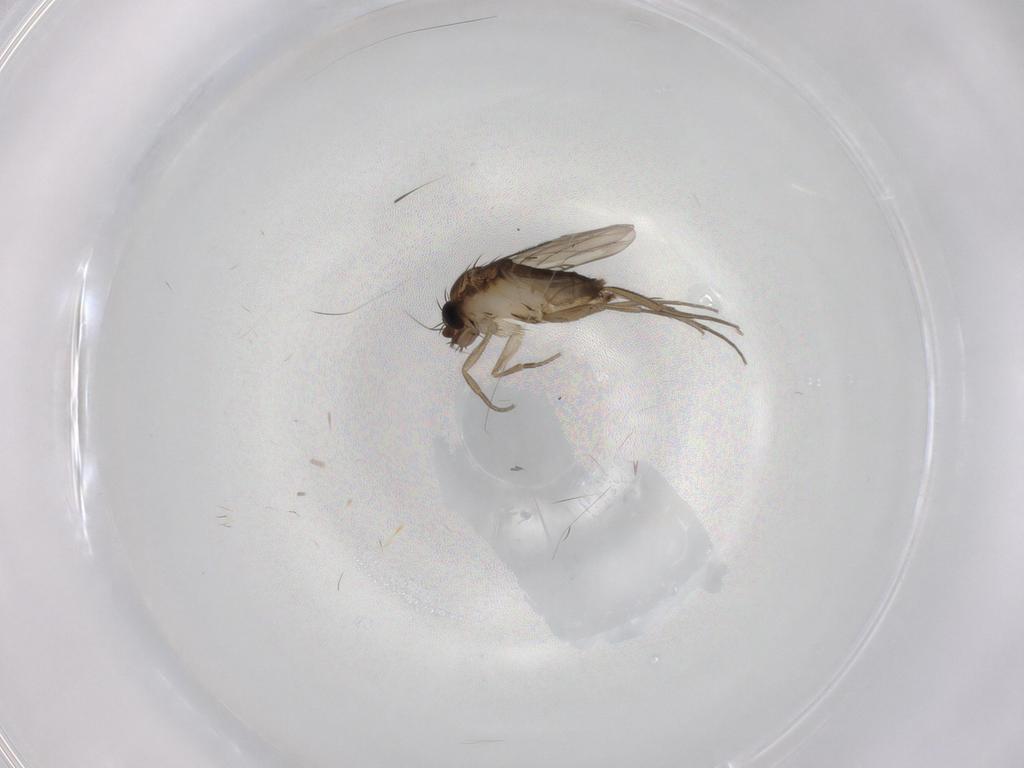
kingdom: Animalia
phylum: Arthropoda
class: Insecta
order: Diptera
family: Phoridae
